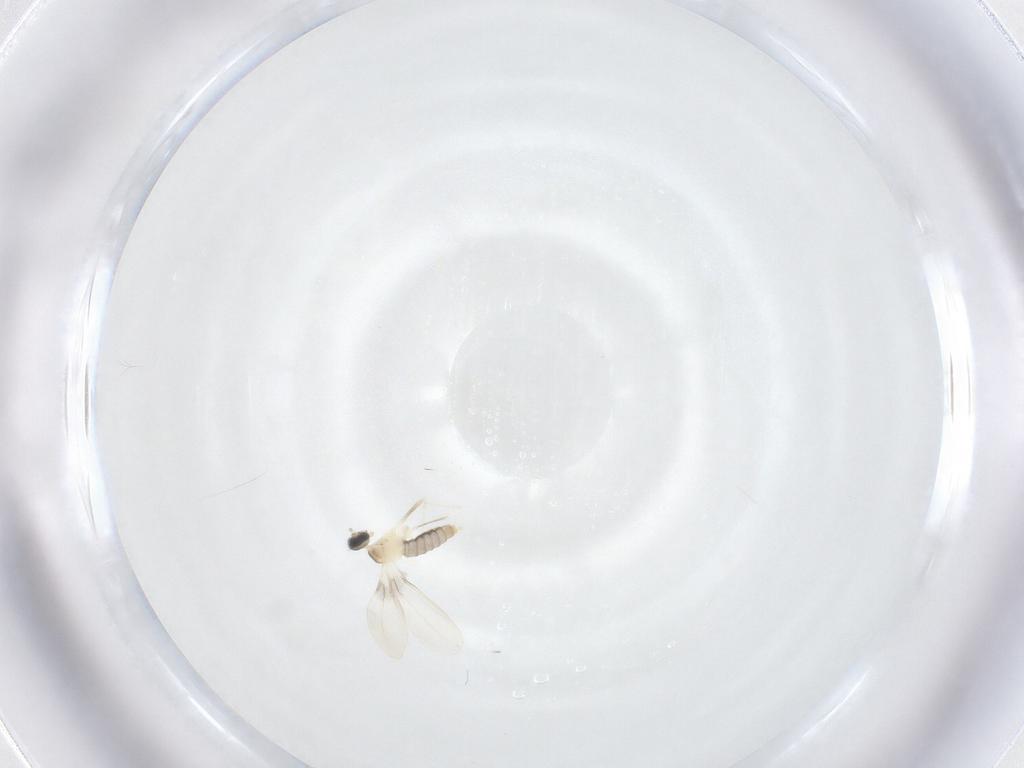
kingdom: Animalia
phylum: Arthropoda
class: Insecta
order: Diptera
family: Cecidomyiidae
